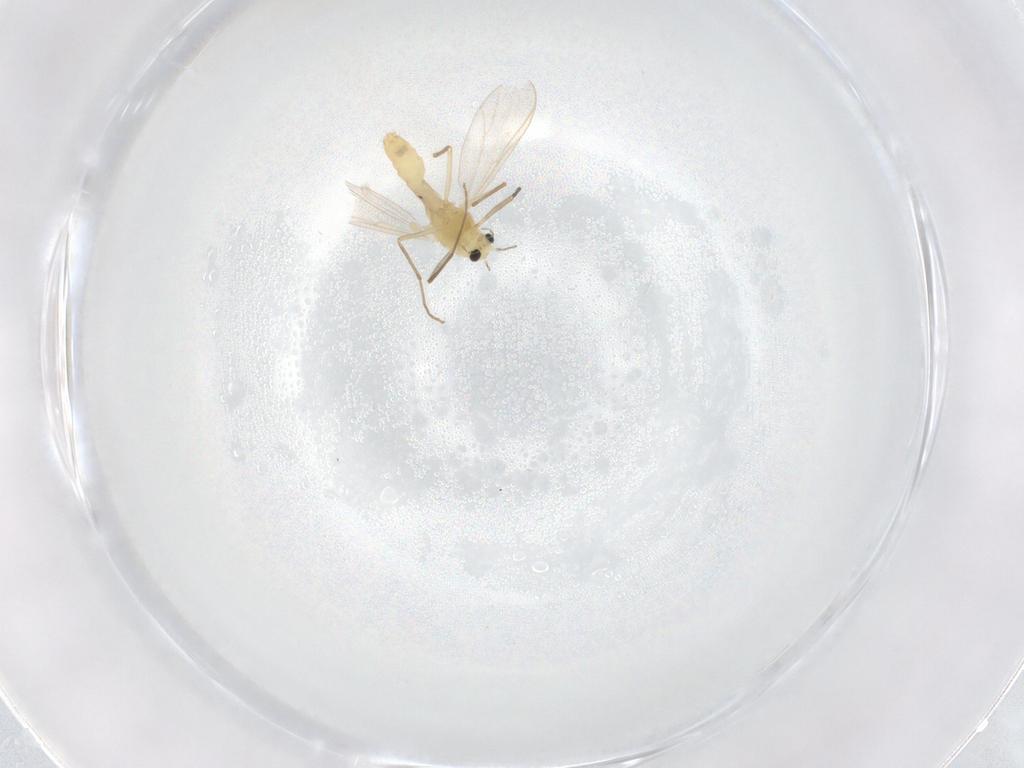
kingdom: Animalia
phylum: Arthropoda
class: Insecta
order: Diptera
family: Chironomidae
